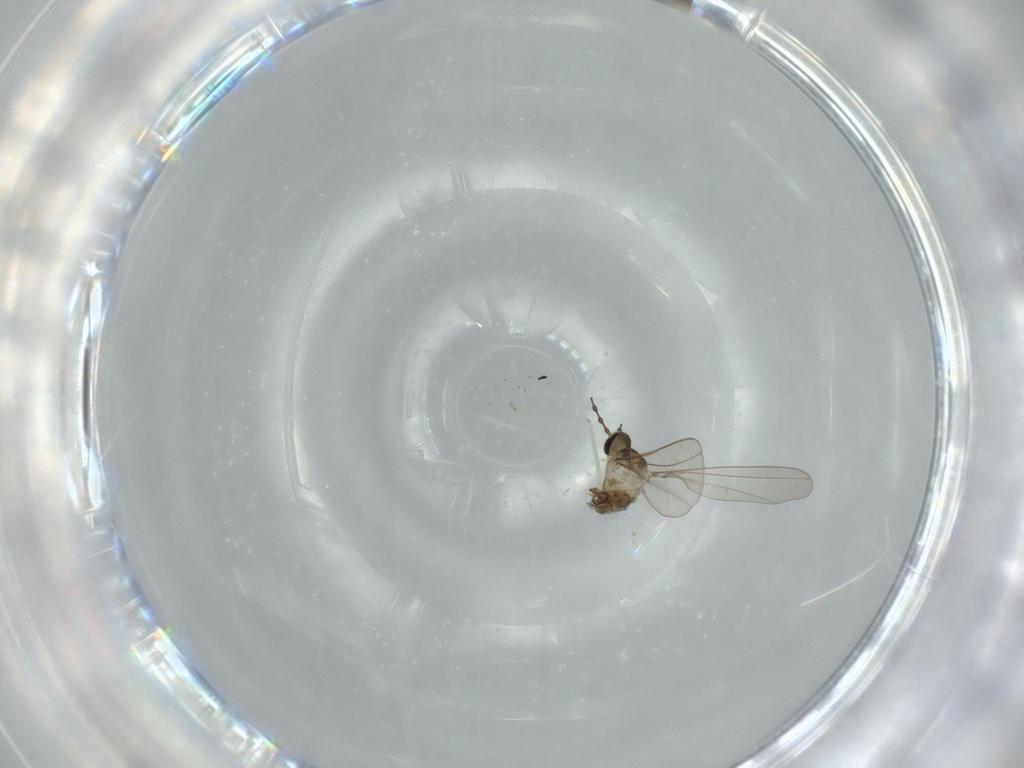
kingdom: Animalia
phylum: Arthropoda
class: Insecta
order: Diptera
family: Cecidomyiidae
